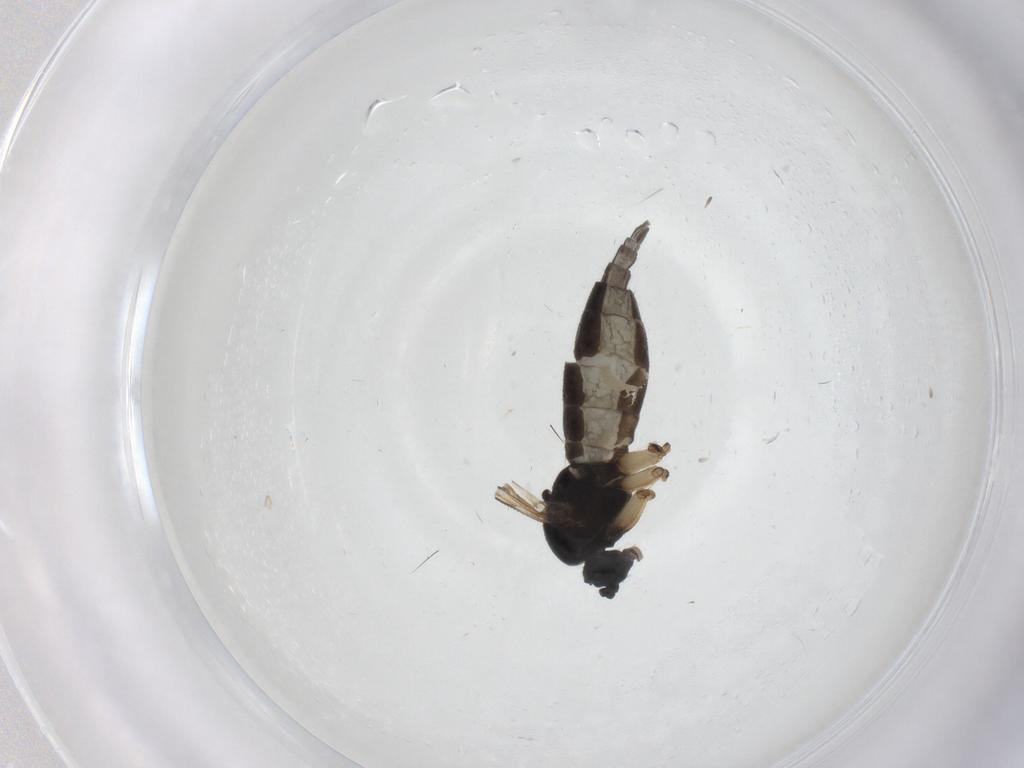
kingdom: Animalia
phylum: Arthropoda
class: Insecta
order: Diptera
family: Sciaridae
